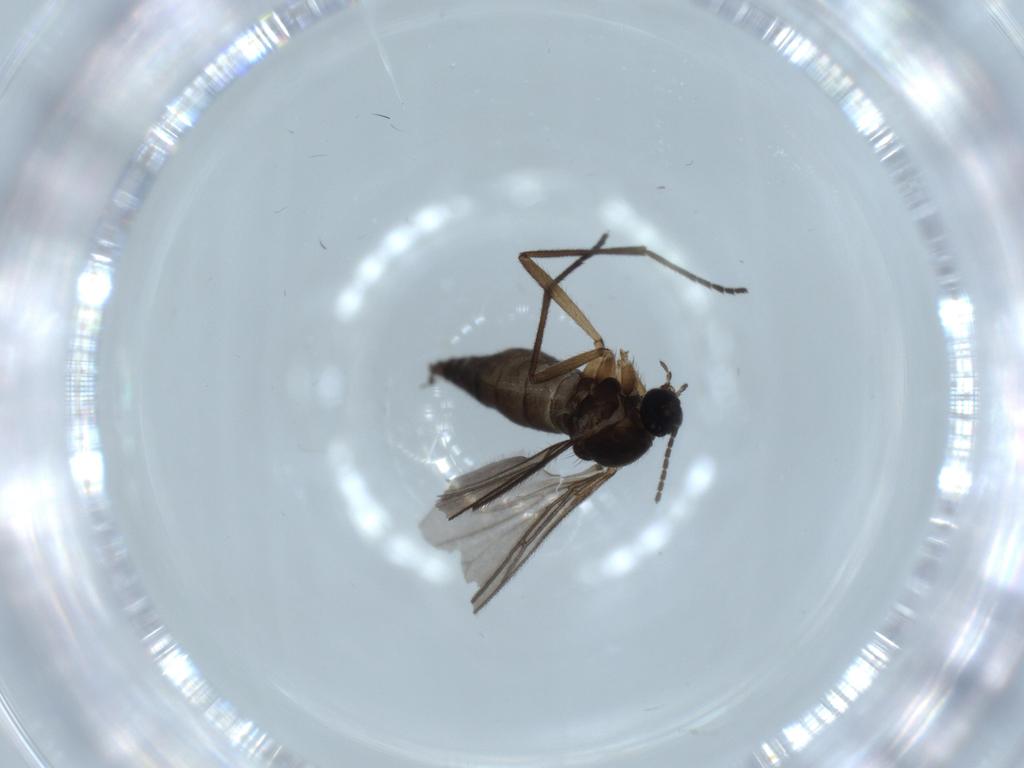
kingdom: Animalia
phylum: Arthropoda
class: Insecta
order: Diptera
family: Sciaridae
